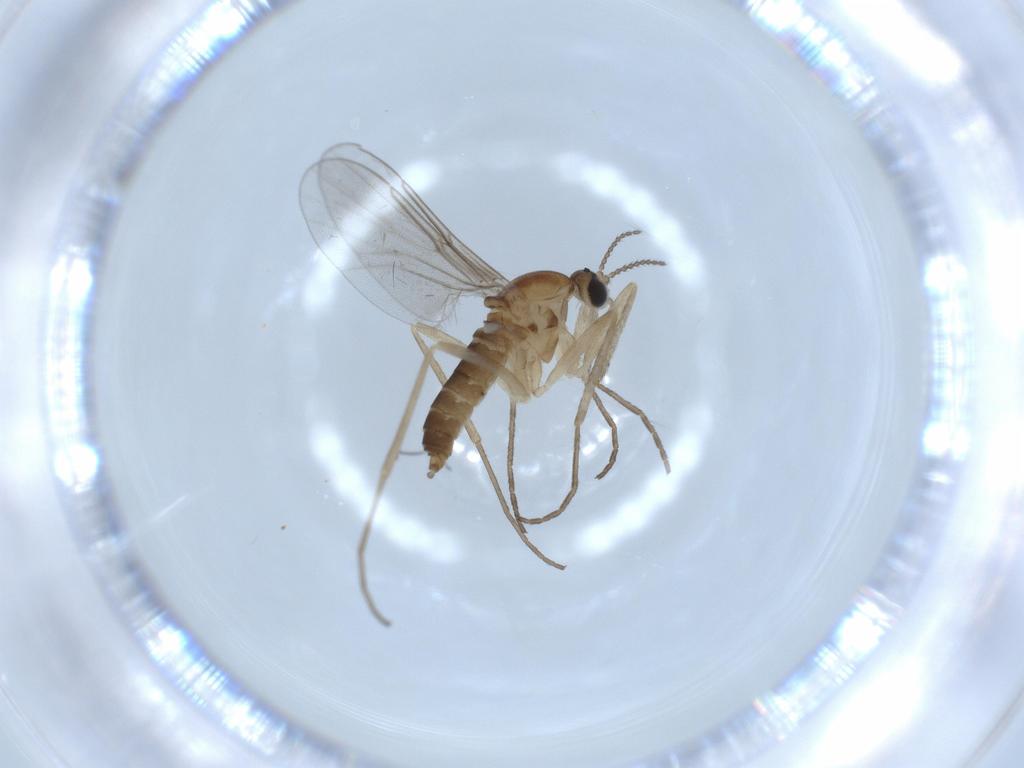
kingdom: Animalia
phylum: Arthropoda
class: Insecta
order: Diptera
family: Cecidomyiidae
